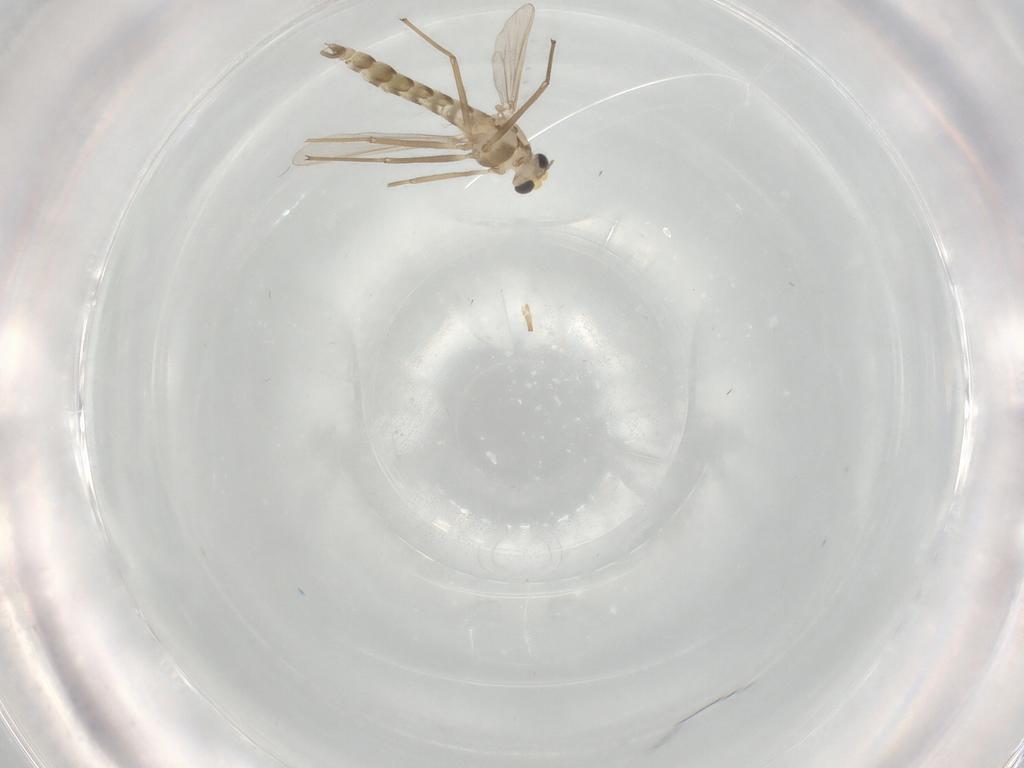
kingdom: Animalia
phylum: Arthropoda
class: Insecta
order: Diptera
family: Chironomidae
